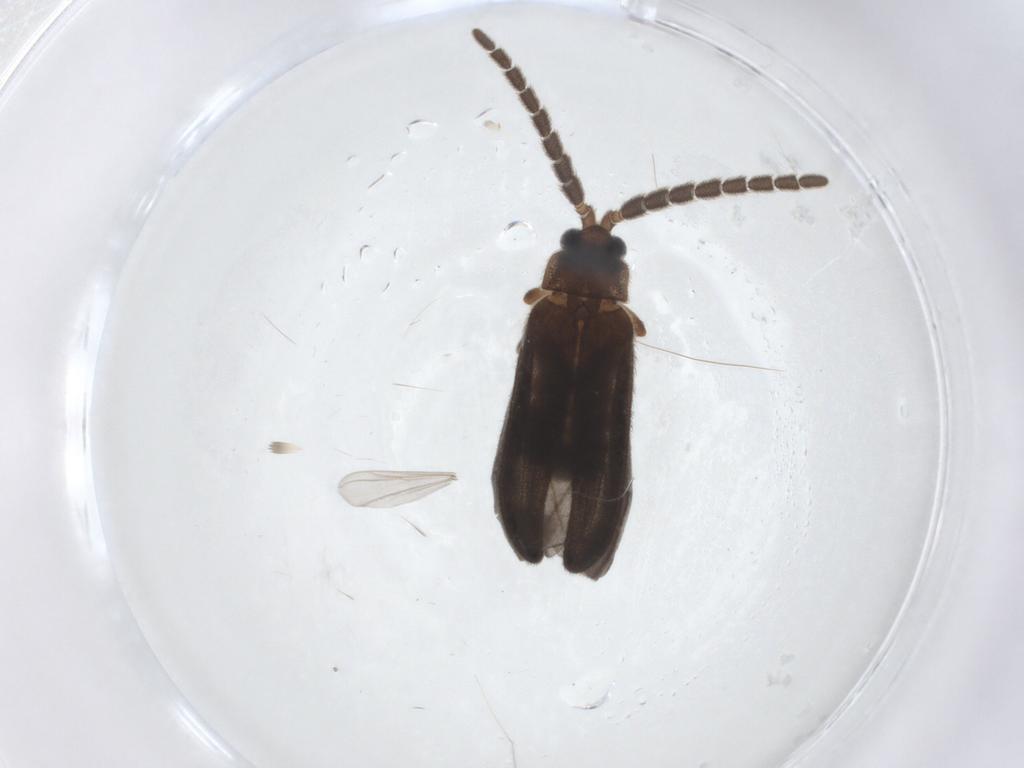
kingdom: Animalia
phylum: Arthropoda
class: Insecta
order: Coleoptera
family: Lycidae
